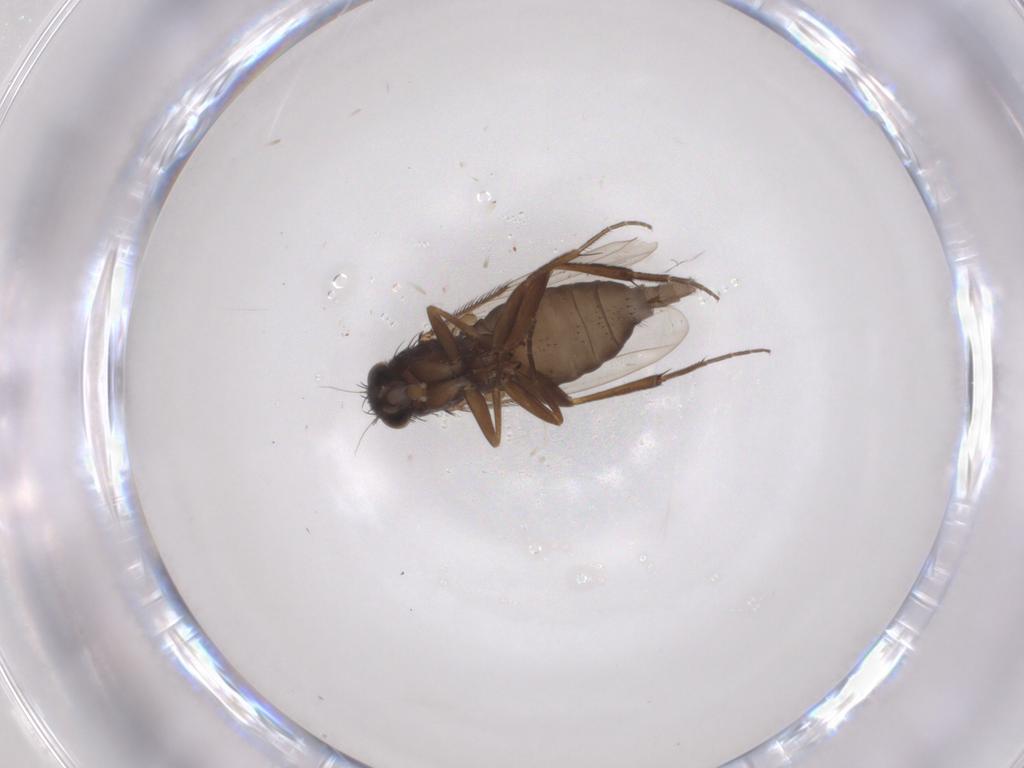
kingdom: Animalia
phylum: Arthropoda
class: Insecta
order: Diptera
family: Phoridae
